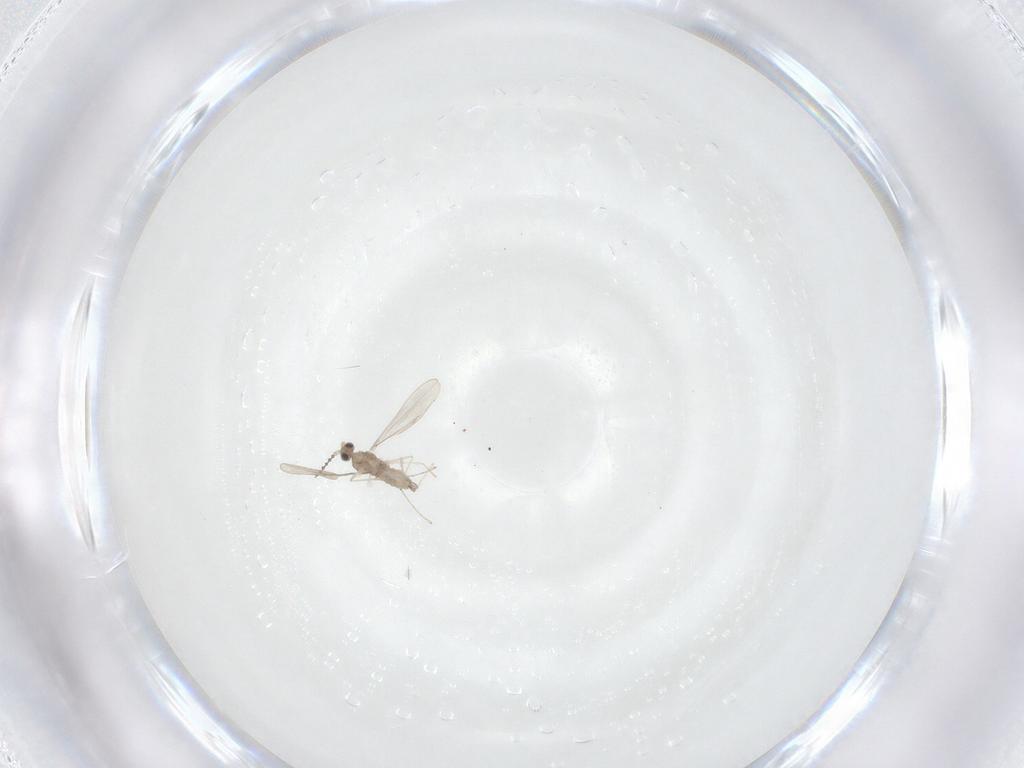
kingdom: Animalia
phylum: Arthropoda
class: Insecta
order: Diptera
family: Cecidomyiidae
